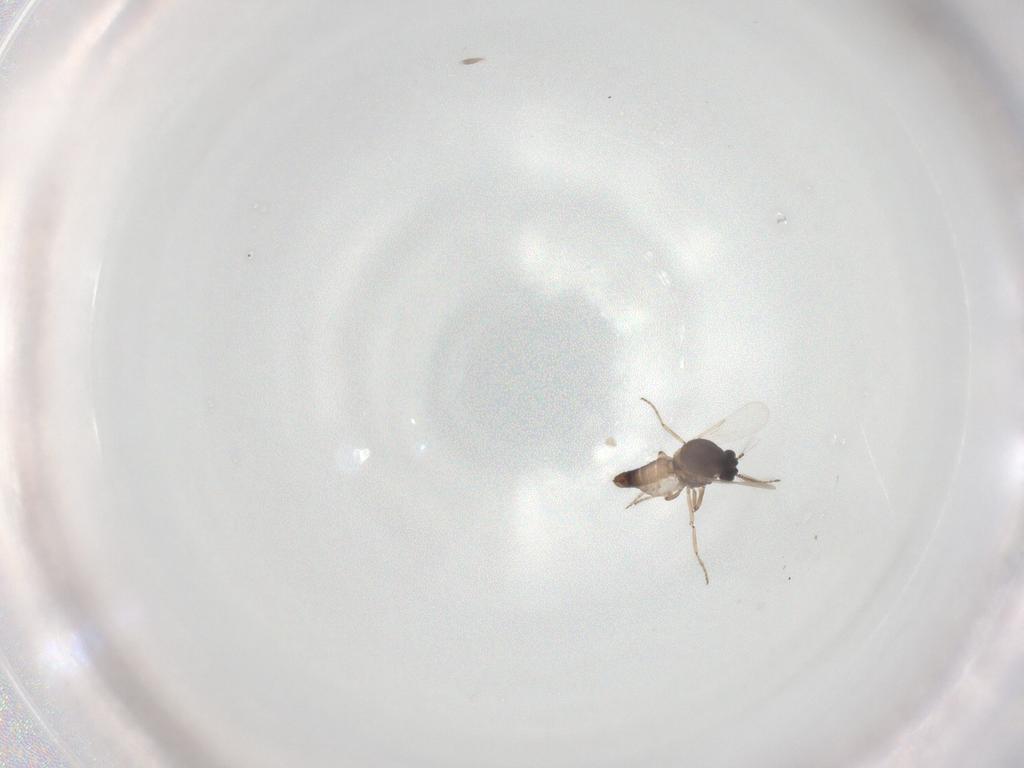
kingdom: Animalia
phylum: Arthropoda
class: Insecta
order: Diptera
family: Ceratopogonidae
